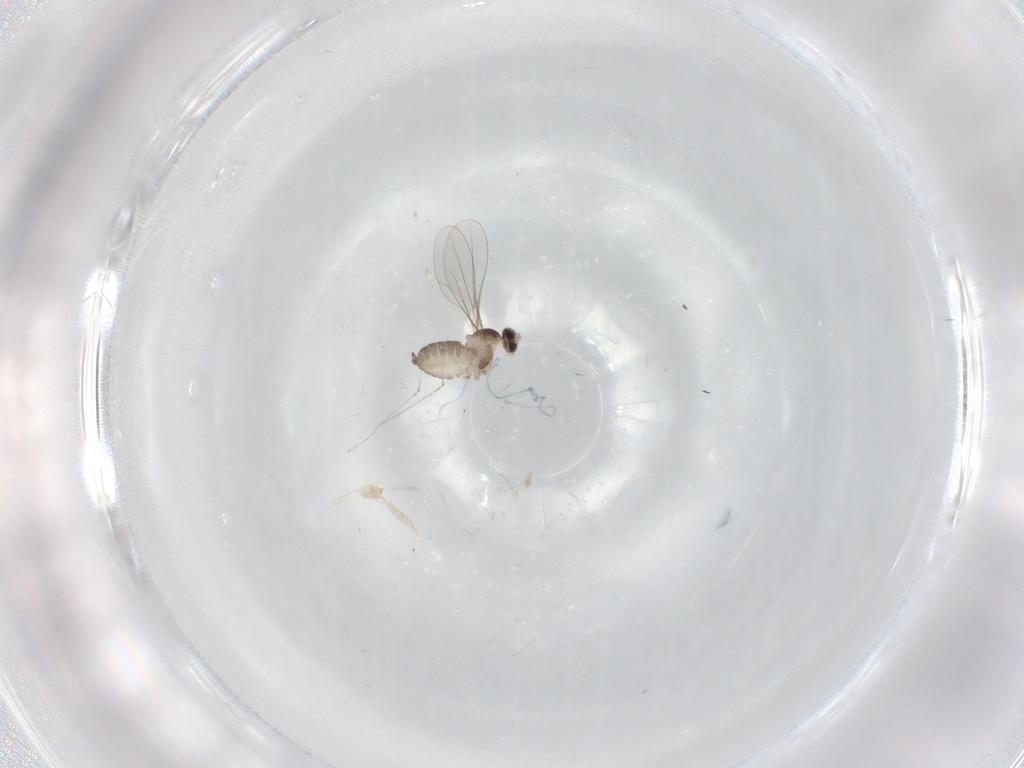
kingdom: Animalia
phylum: Arthropoda
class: Insecta
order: Diptera
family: Cecidomyiidae
